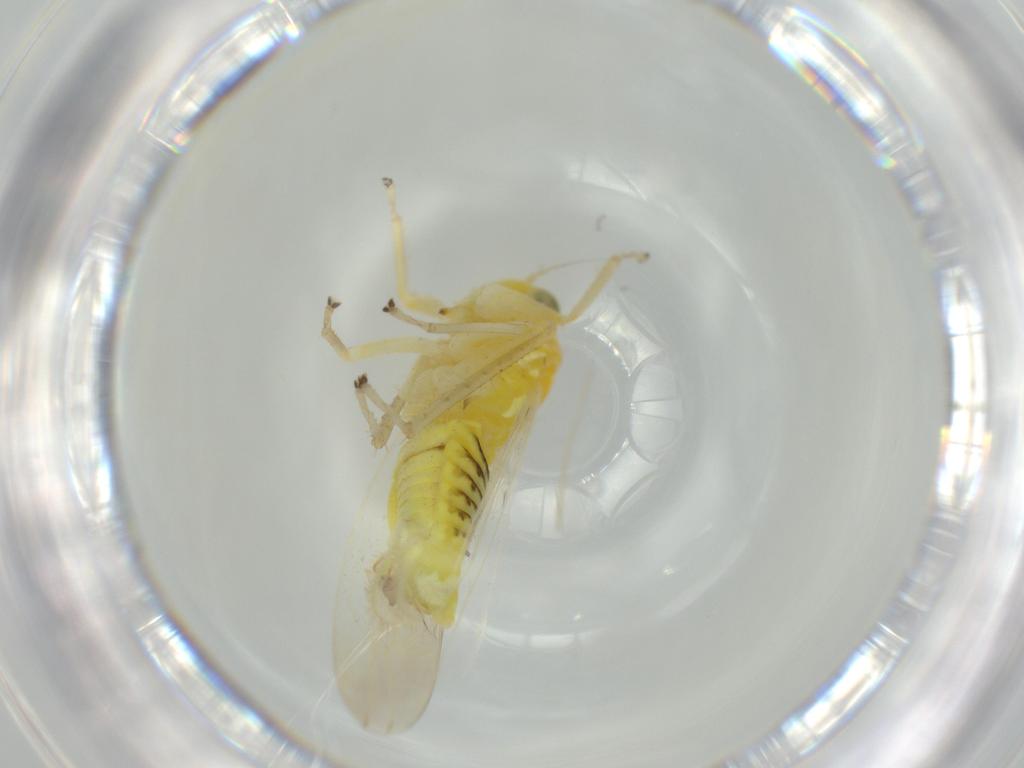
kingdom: Animalia
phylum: Arthropoda
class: Insecta
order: Hemiptera
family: Cicadellidae
